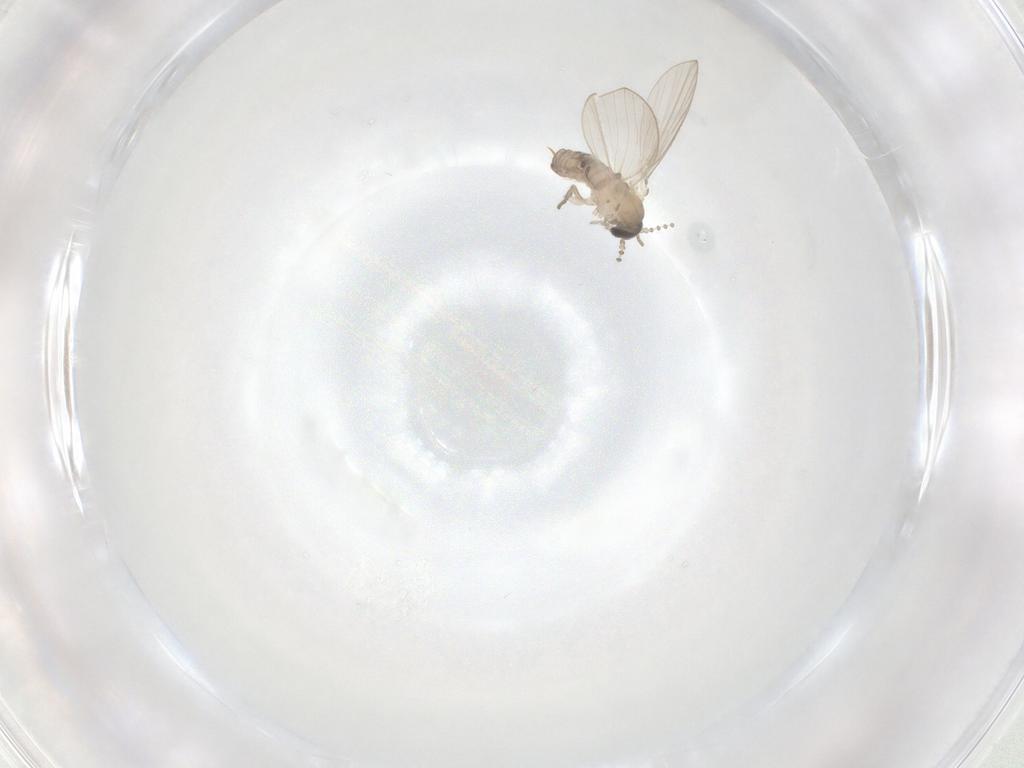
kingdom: Animalia
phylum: Arthropoda
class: Insecta
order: Diptera
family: Psychodidae
